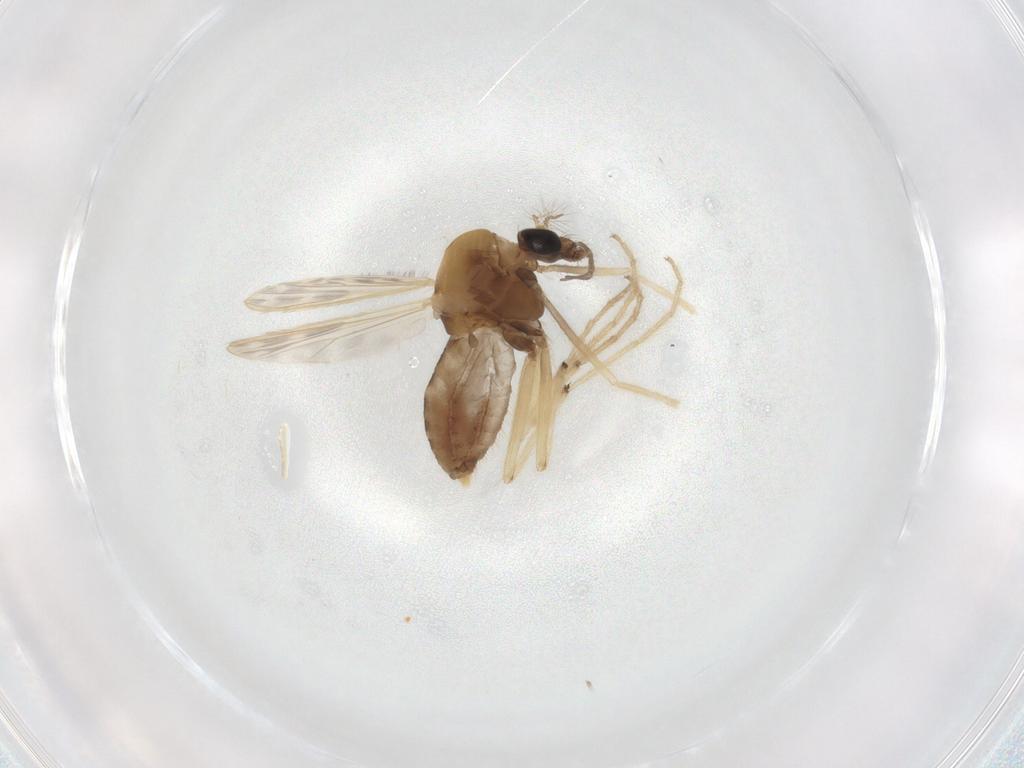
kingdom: Animalia
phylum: Arthropoda
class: Insecta
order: Diptera
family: Chironomidae
